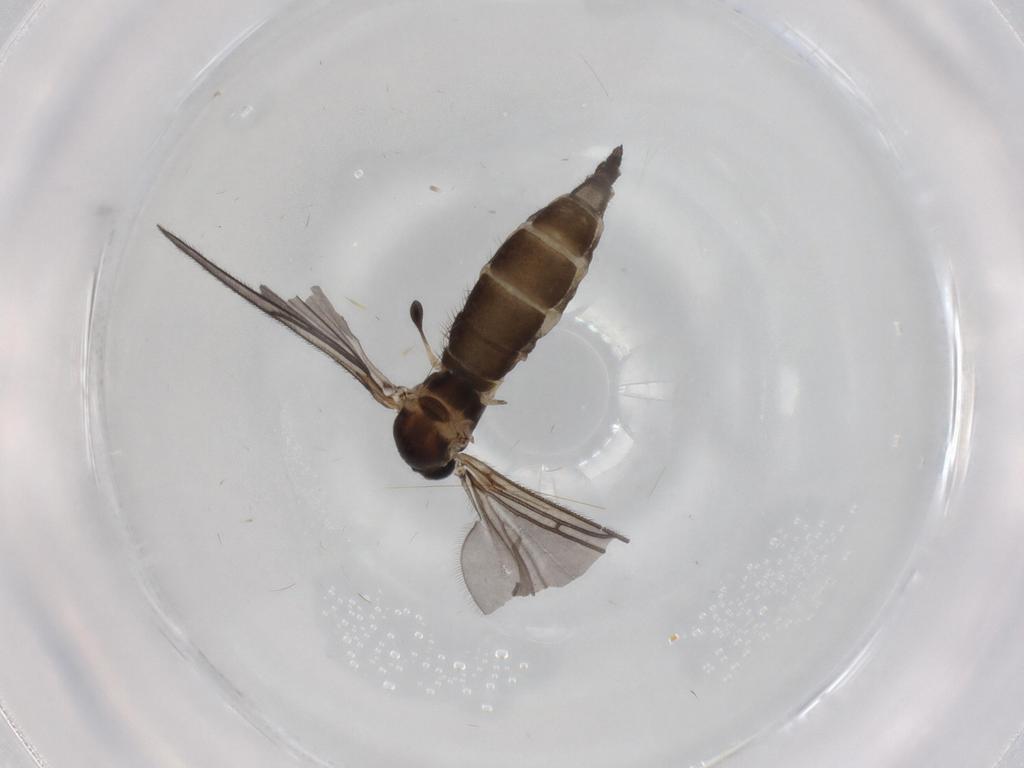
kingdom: Animalia
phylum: Arthropoda
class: Insecta
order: Diptera
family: Sciaridae
